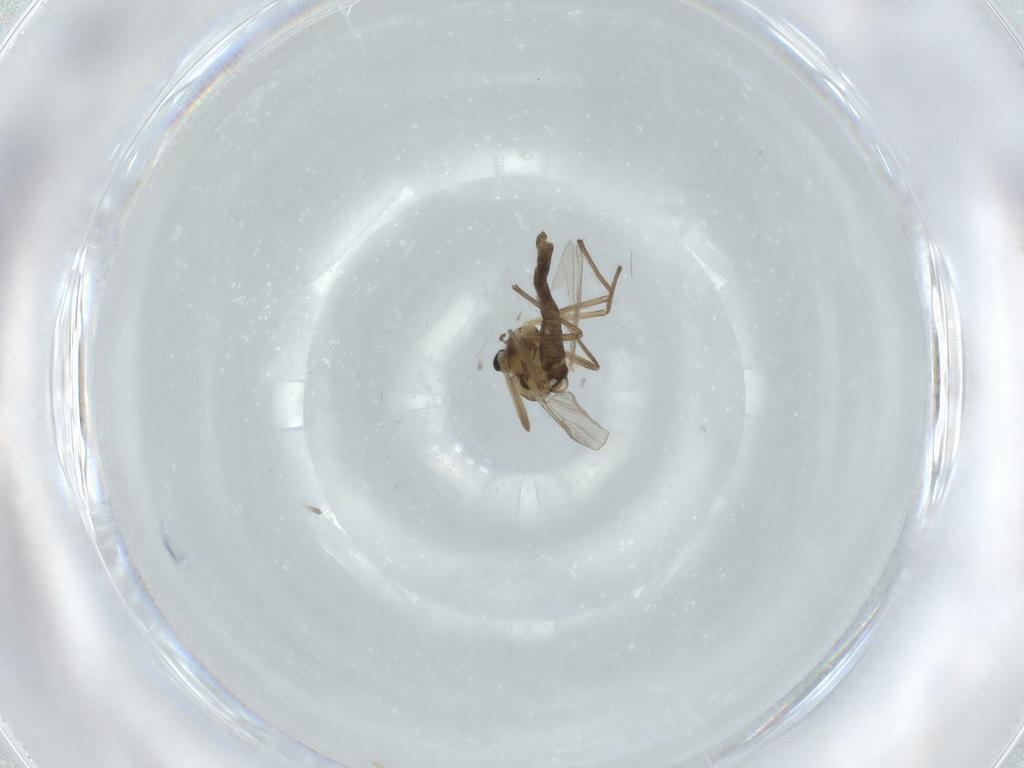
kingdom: Animalia
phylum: Arthropoda
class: Insecta
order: Diptera
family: Chironomidae
